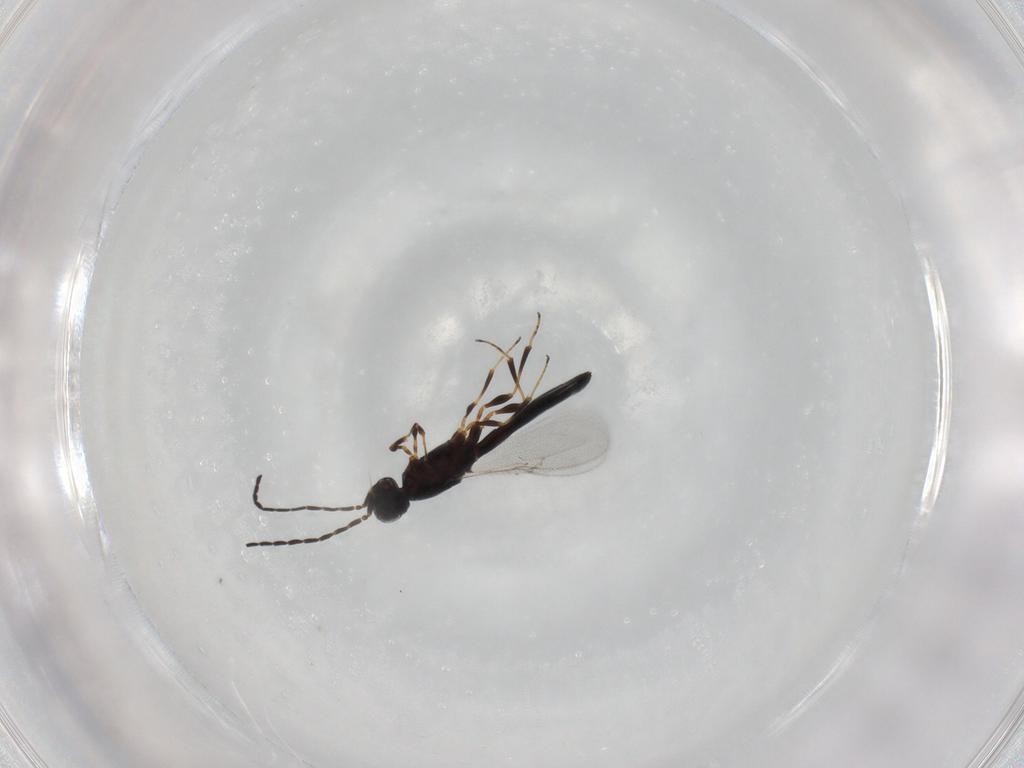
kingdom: Animalia
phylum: Arthropoda
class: Insecta
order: Hymenoptera
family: Scelionidae
